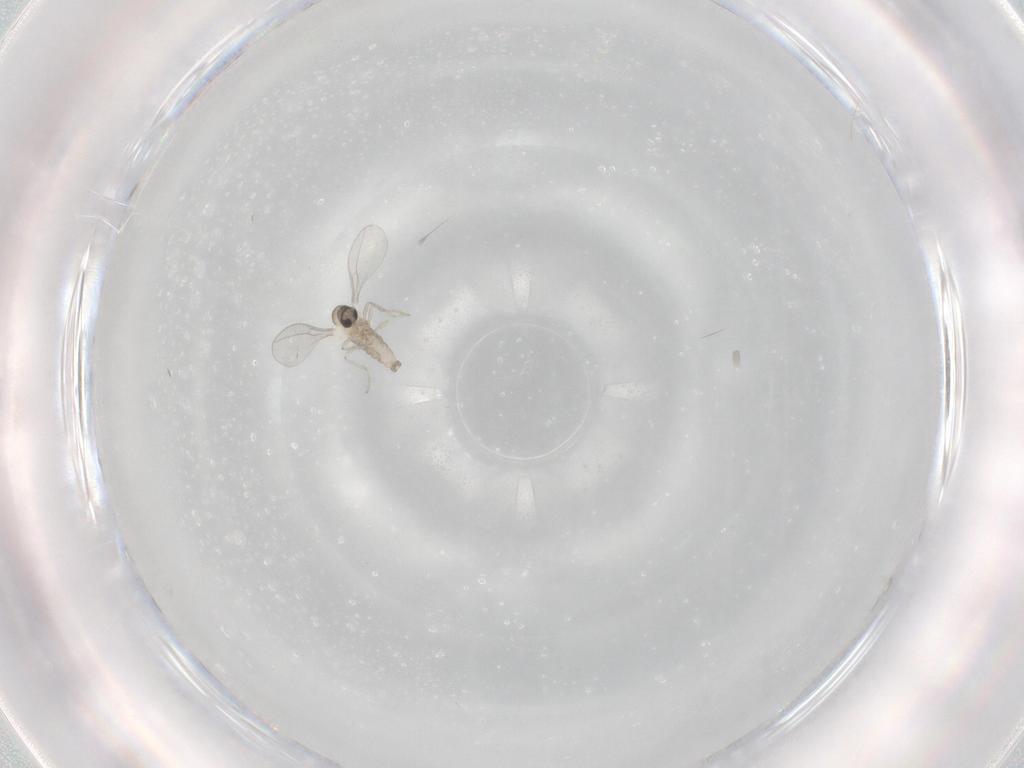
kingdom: Animalia
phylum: Arthropoda
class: Insecta
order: Diptera
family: Cecidomyiidae
